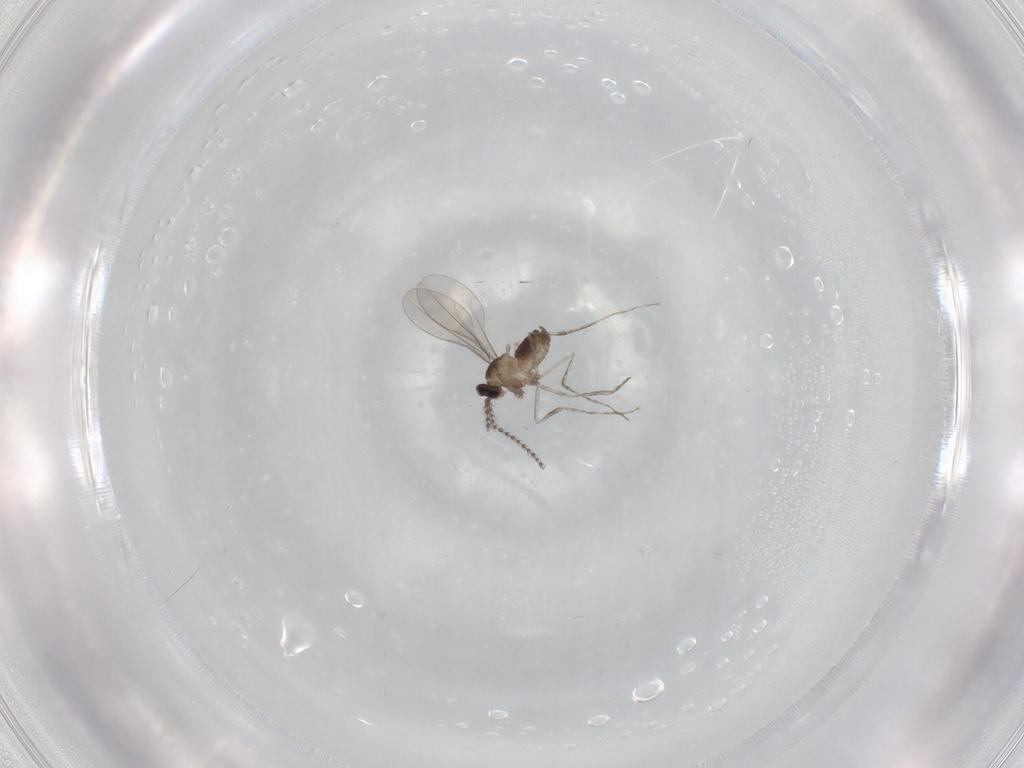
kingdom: Animalia
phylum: Arthropoda
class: Insecta
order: Diptera
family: Cecidomyiidae
